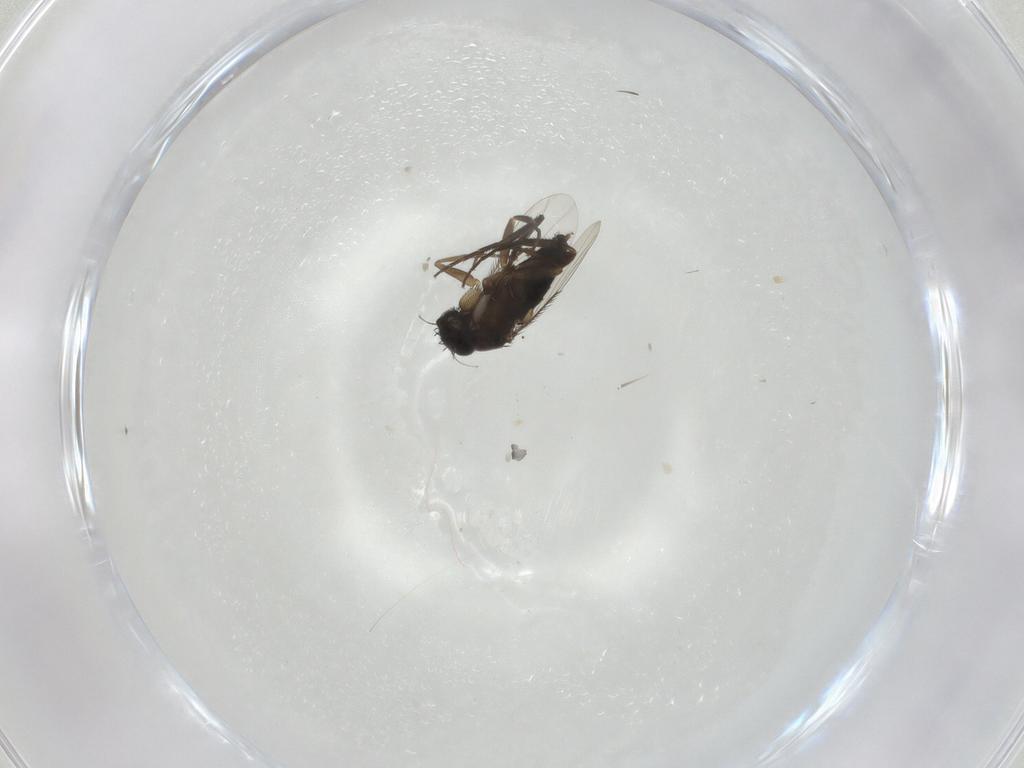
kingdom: Animalia
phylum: Arthropoda
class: Insecta
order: Diptera
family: Phoridae
